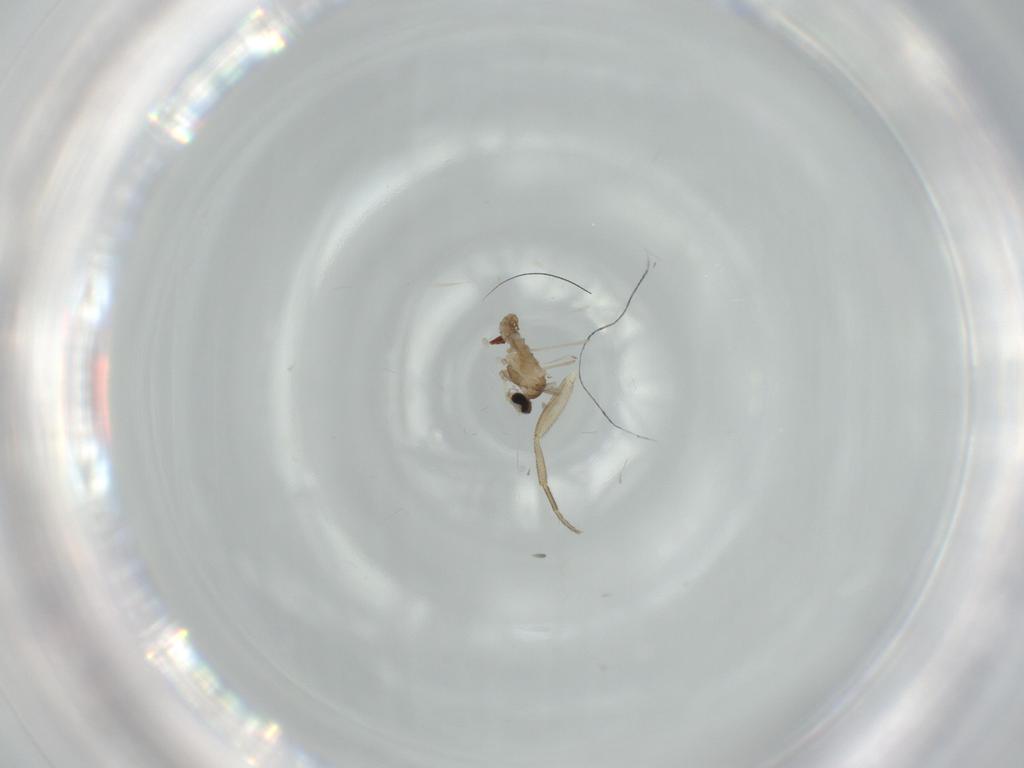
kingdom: Animalia
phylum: Arthropoda
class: Insecta
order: Diptera
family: Cecidomyiidae
